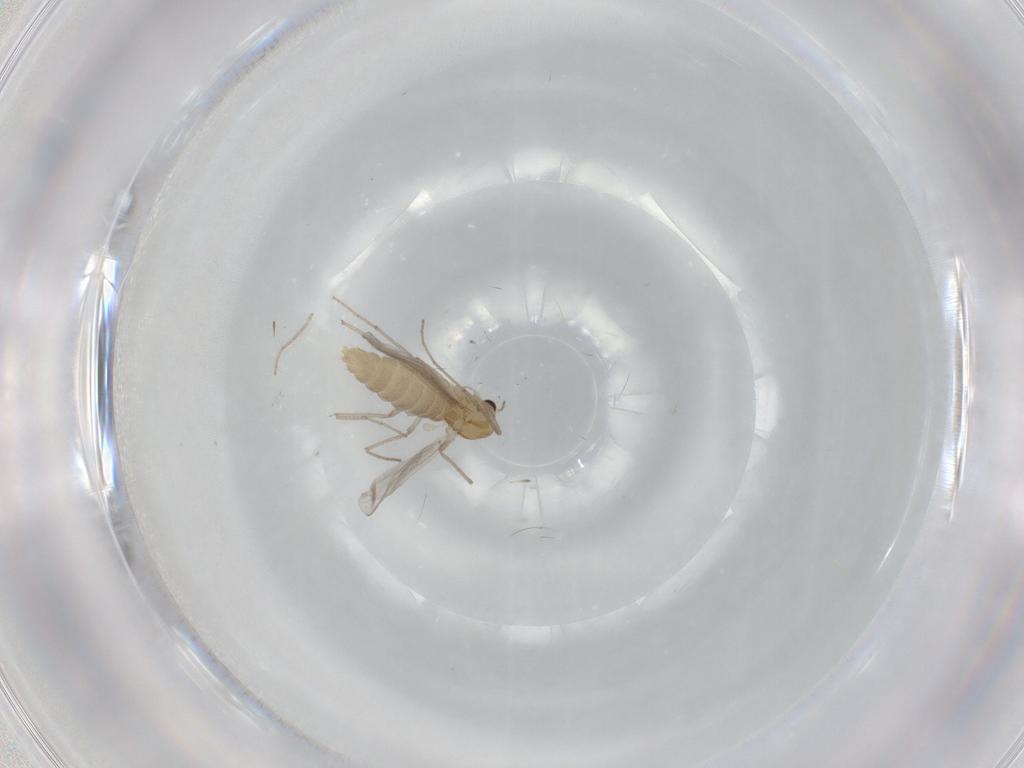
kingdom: Animalia
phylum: Arthropoda
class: Insecta
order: Diptera
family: Chironomidae
